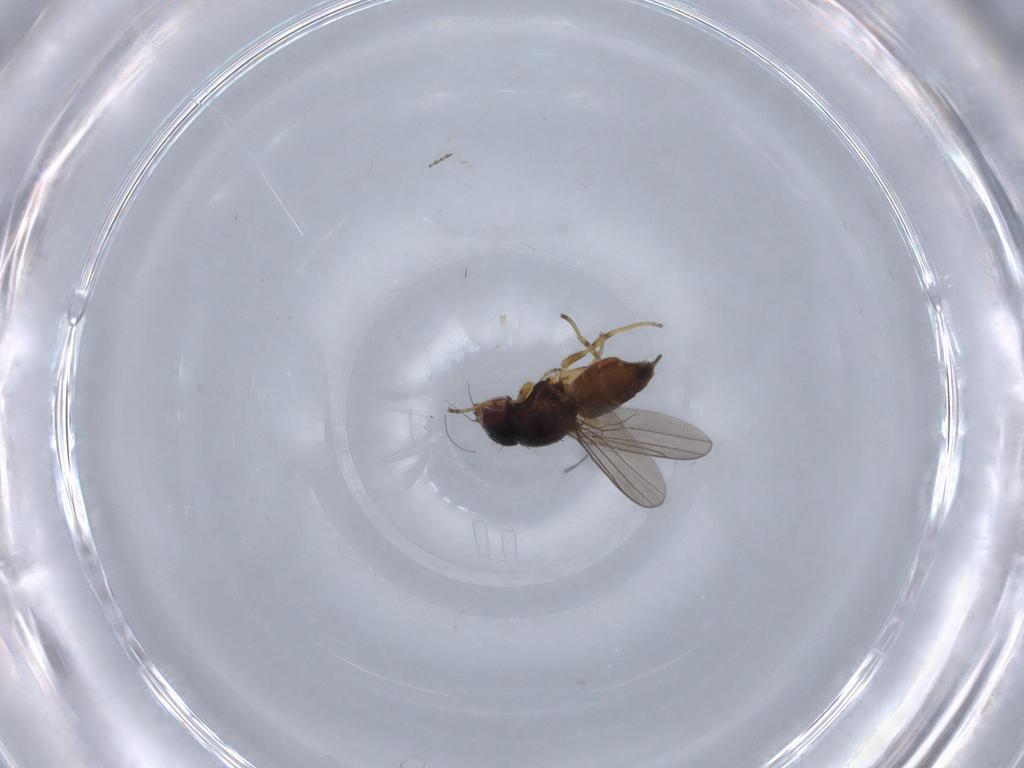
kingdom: Animalia
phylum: Arthropoda
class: Insecta
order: Diptera
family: Chloropidae
